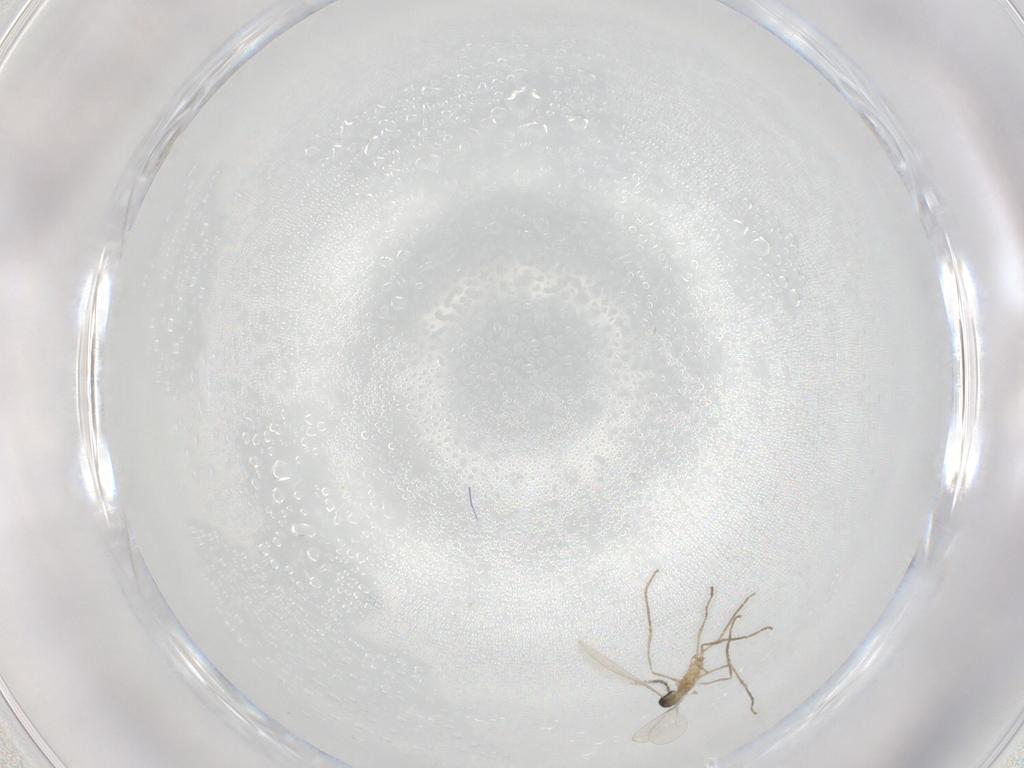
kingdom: Animalia
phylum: Arthropoda
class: Insecta
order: Diptera
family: Cecidomyiidae
